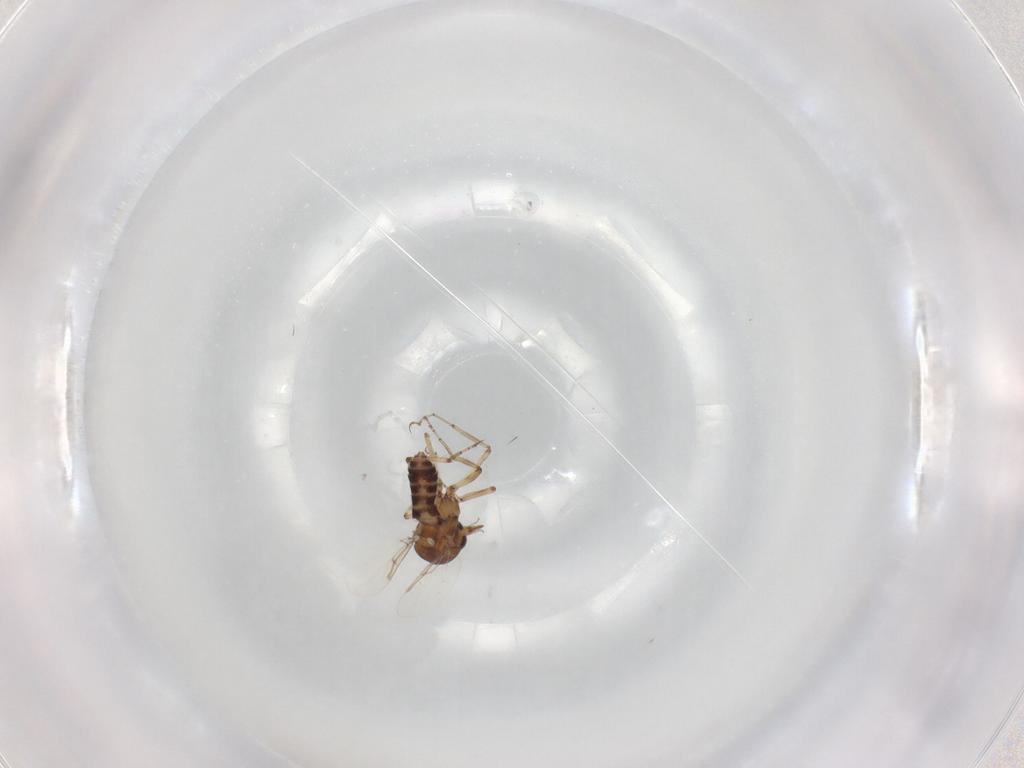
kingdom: Animalia
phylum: Arthropoda
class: Insecta
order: Diptera
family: Ceratopogonidae
